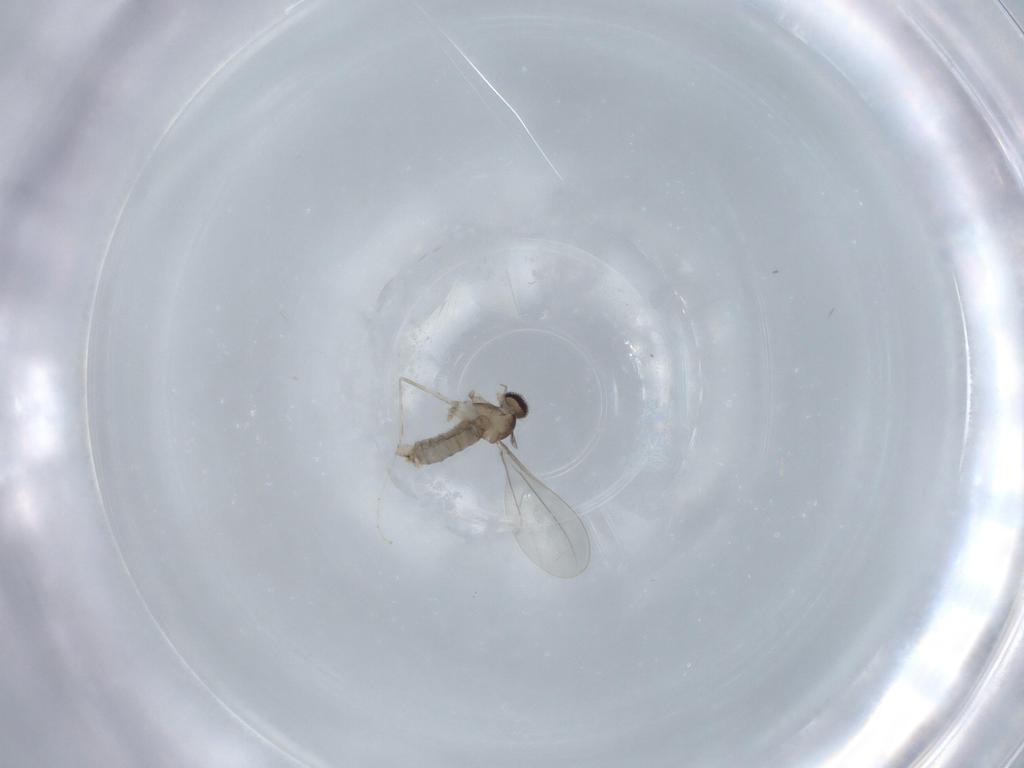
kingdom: Animalia
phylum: Arthropoda
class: Insecta
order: Diptera
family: Cecidomyiidae
